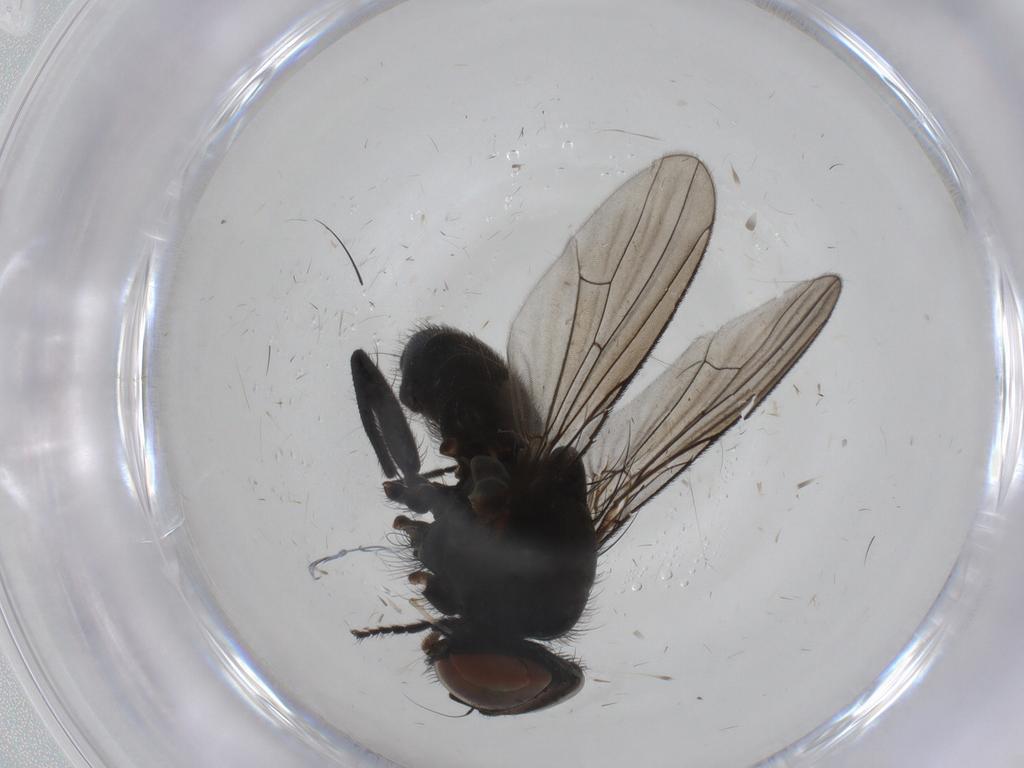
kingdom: Animalia
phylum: Arthropoda
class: Insecta
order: Diptera
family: Muscidae
